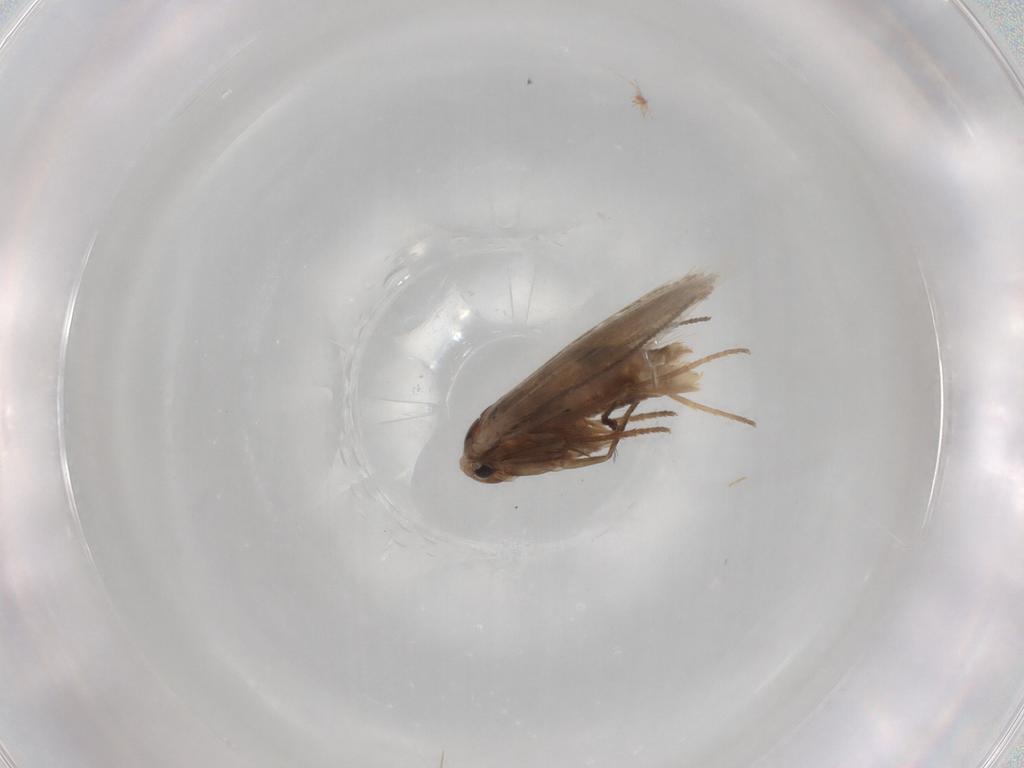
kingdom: Animalia
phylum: Arthropoda
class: Insecta
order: Lepidoptera
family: Bucculatricidae
